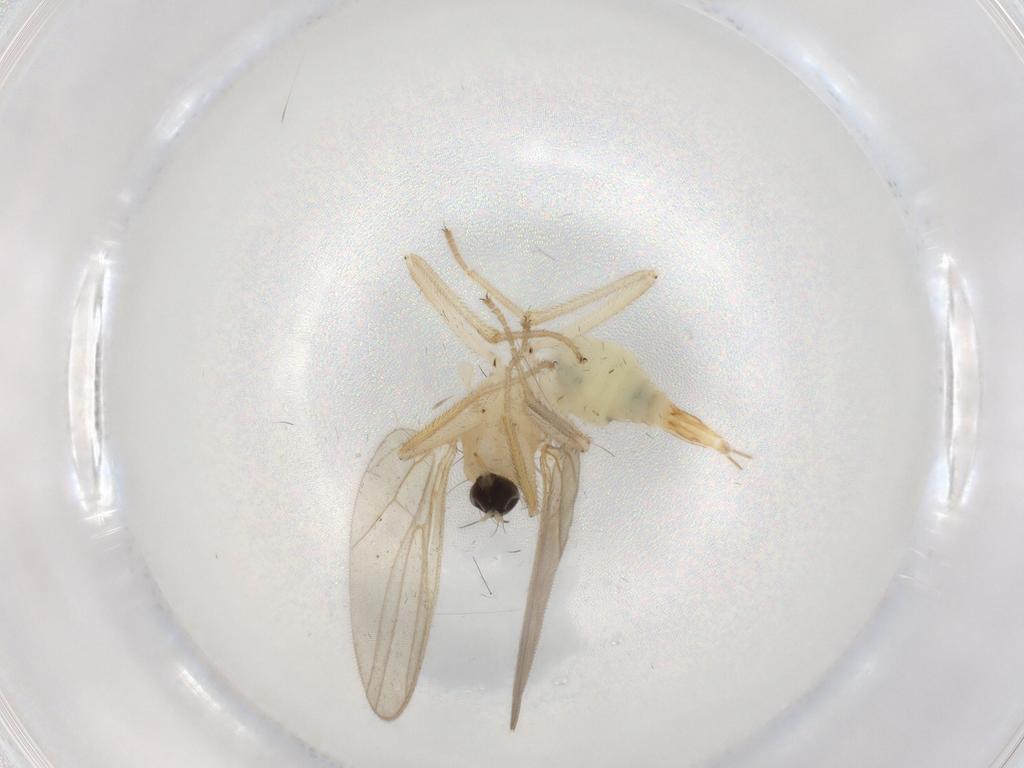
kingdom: Animalia
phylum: Arthropoda
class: Insecta
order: Diptera
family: Hybotidae
